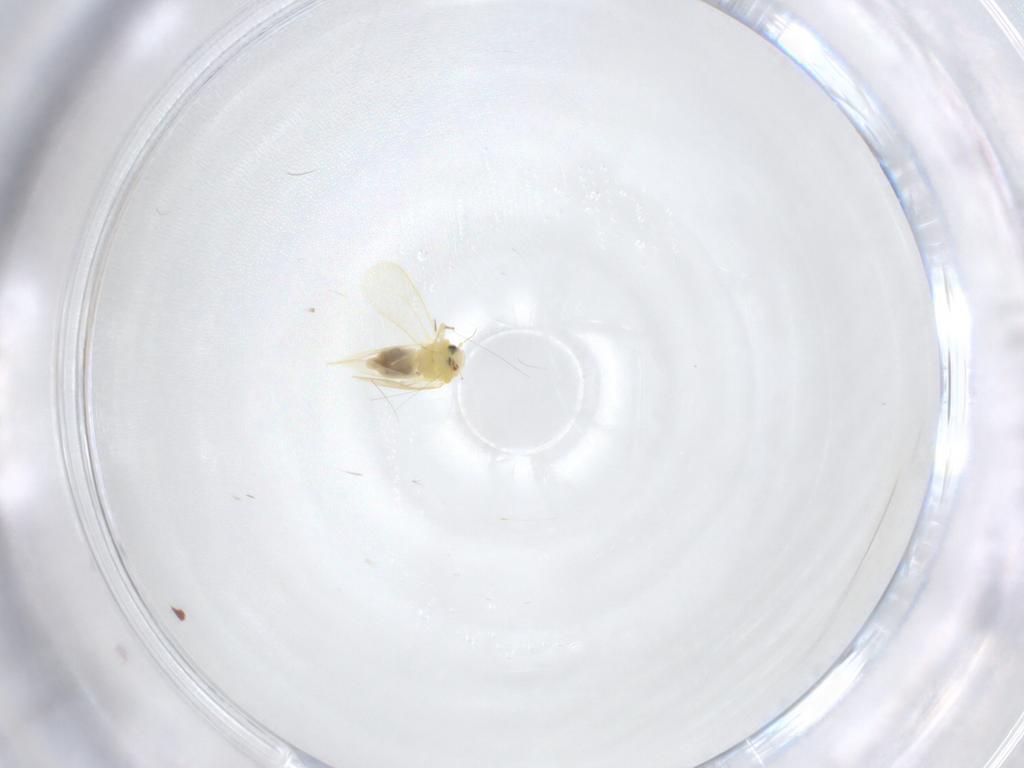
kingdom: Animalia
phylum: Arthropoda
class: Insecta
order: Hemiptera
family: Aleyrodidae
